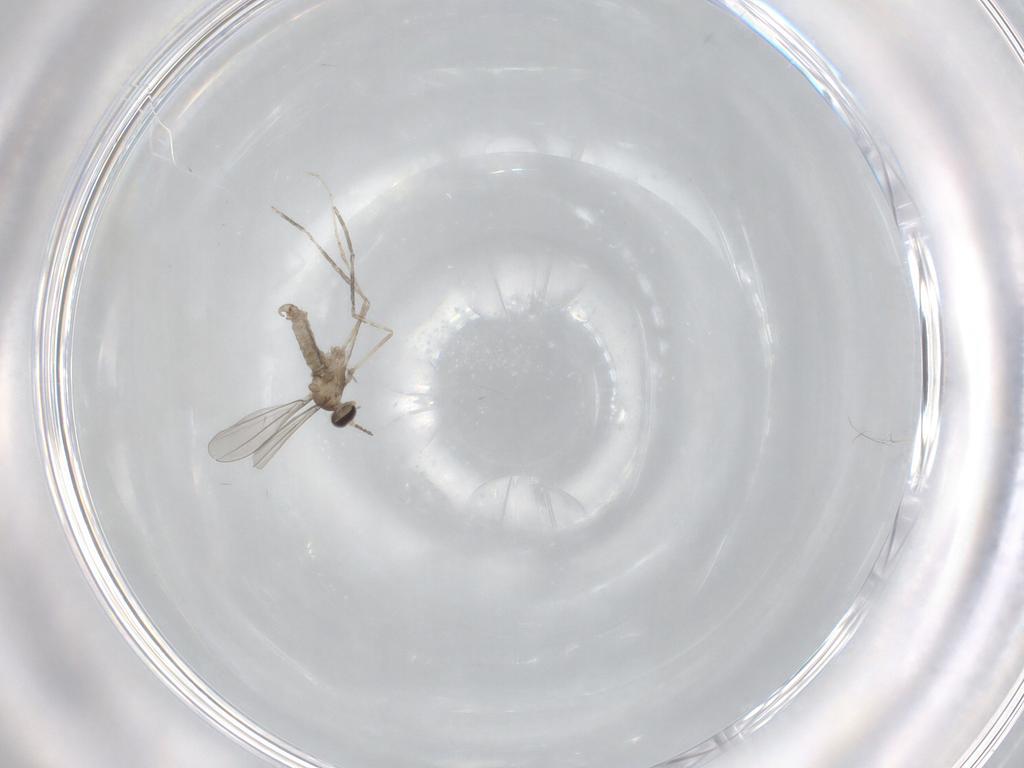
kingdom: Animalia
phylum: Arthropoda
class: Insecta
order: Diptera
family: Cecidomyiidae
